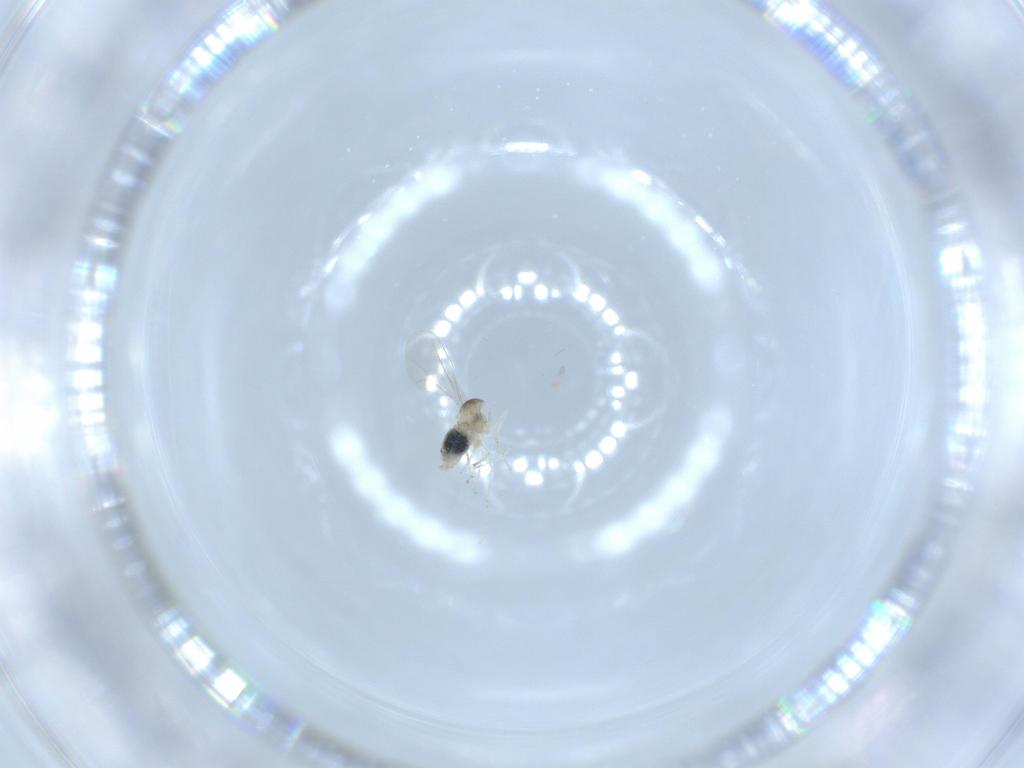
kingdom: Animalia
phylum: Arthropoda
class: Insecta
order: Diptera
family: Cecidomyiidae
